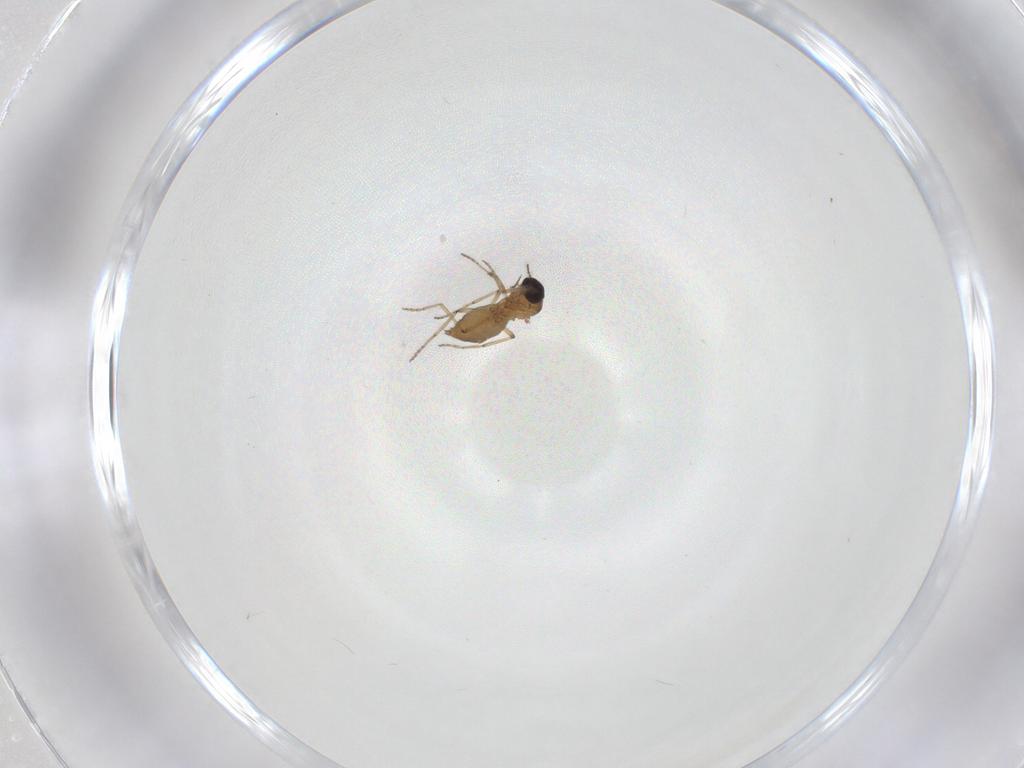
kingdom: Animalia
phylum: Arthropoda
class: Insecta
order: Diptera
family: Ceratopogonidae
